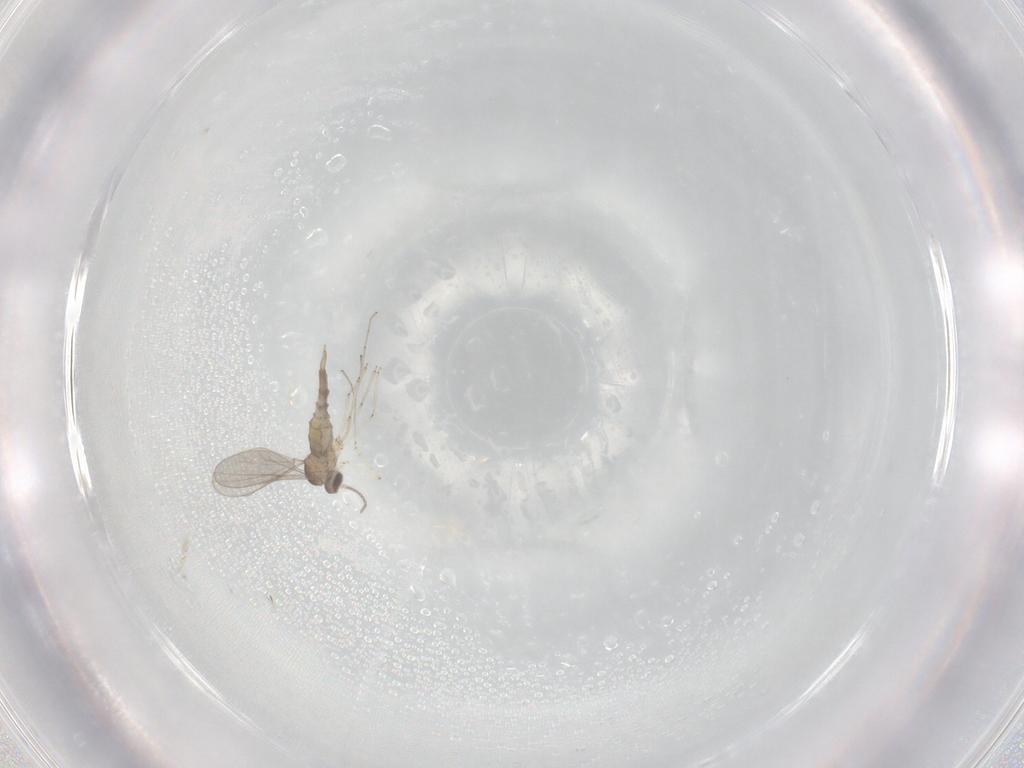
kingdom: Animalia
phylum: Arthropoda
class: Insecta
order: Diptera
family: Cecidomyiidae
